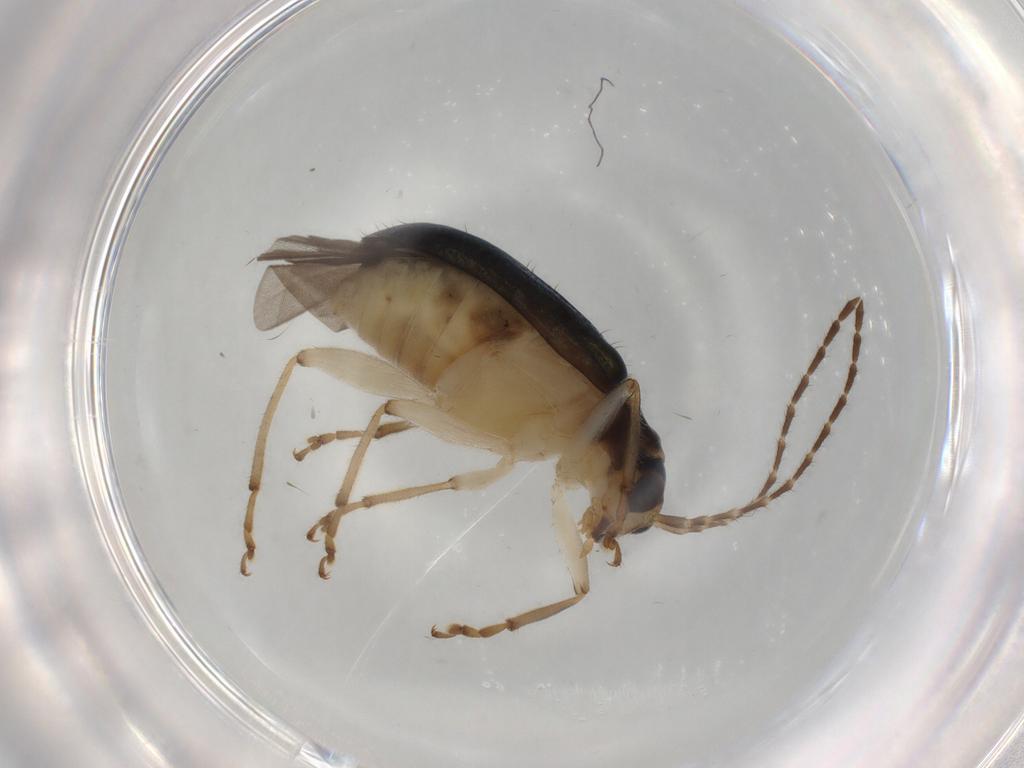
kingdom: Animalia
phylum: Arthropoda
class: Insecta
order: Coleoptera
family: Chrysomelidae
